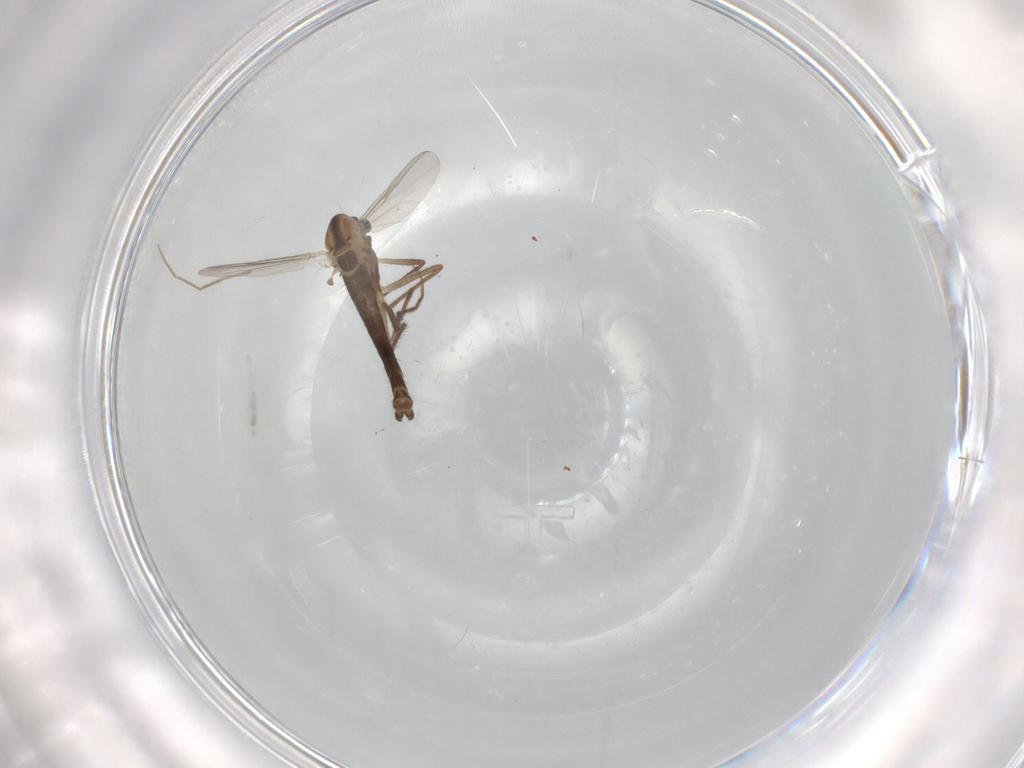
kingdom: Animalia
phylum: Arthropoda
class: Insecta
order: Diptera
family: Chironomidae
